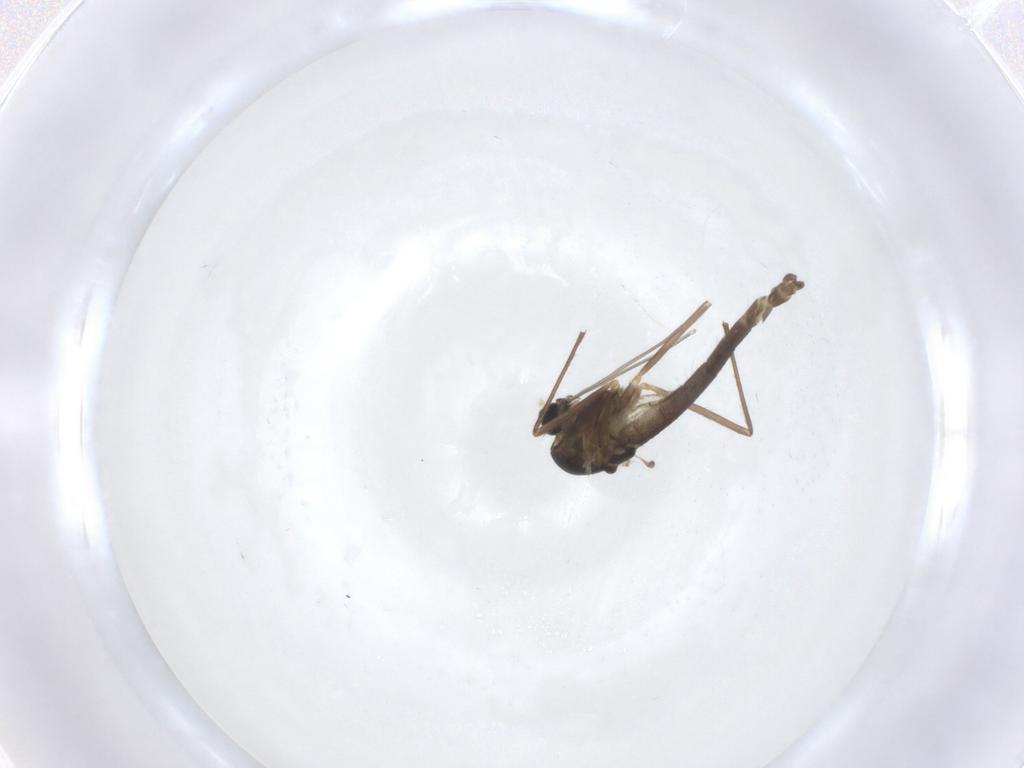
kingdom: Animalia
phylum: Arthropoda
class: Insecta
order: Diptera
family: Chironomidae
